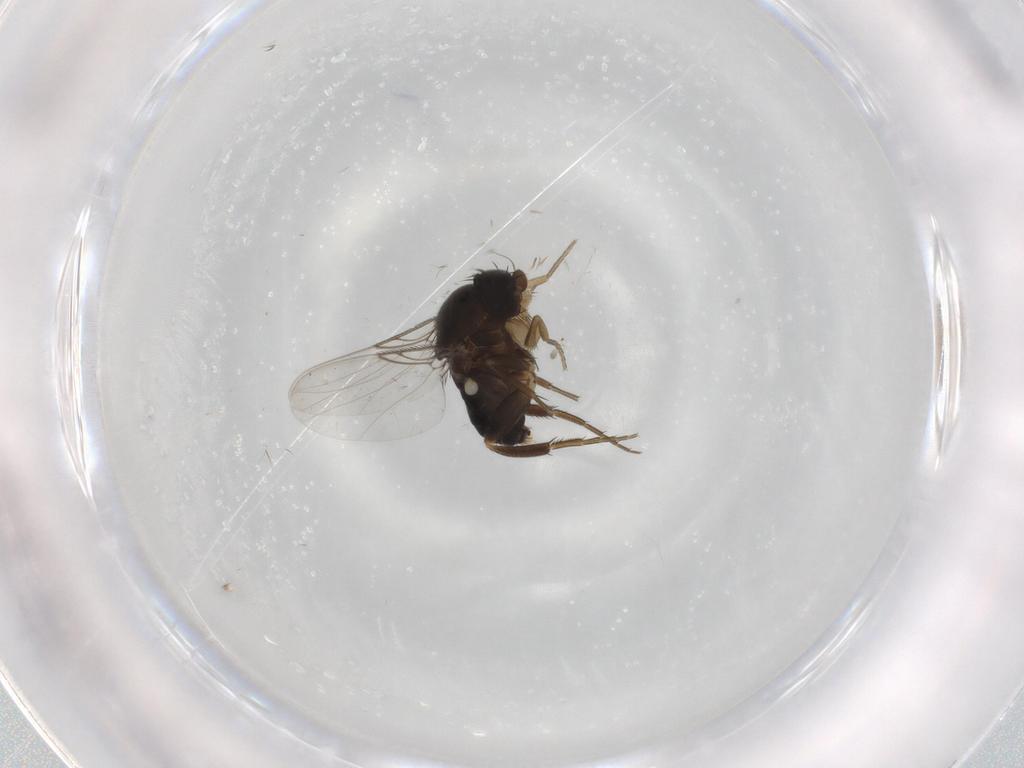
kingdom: Animalia
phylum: Arthropoda
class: Insecta
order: Diptera
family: Phoridae
